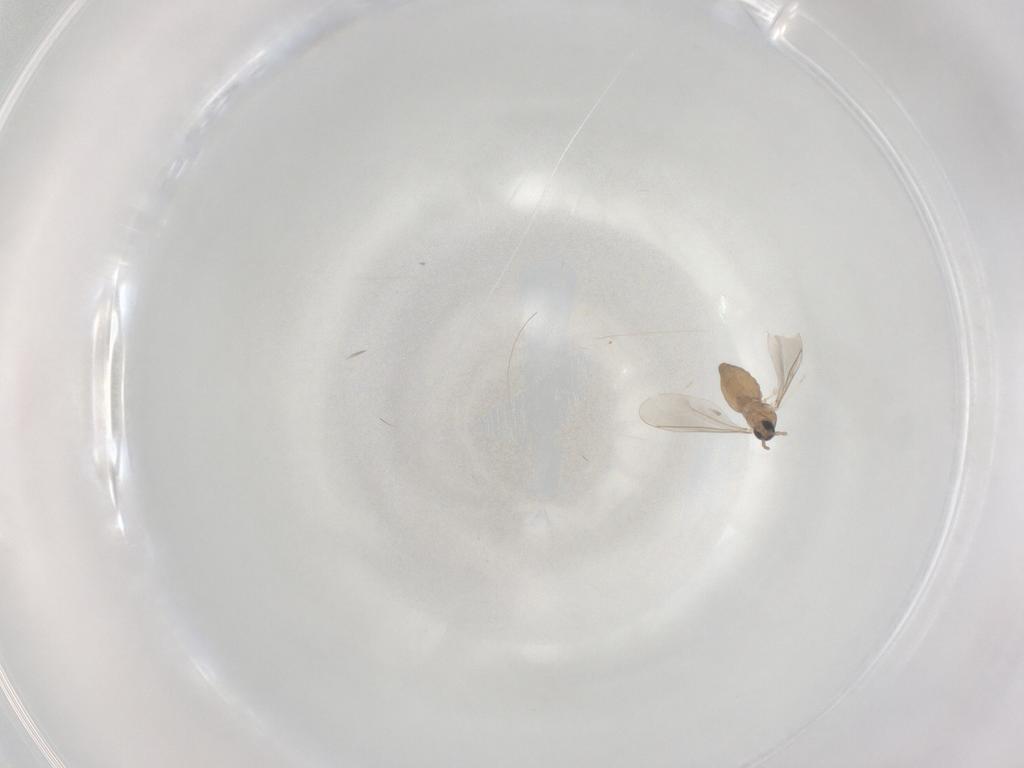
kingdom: Animalia
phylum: Arthropoda
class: Insecta
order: Diptera
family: Cecidomyiidae
